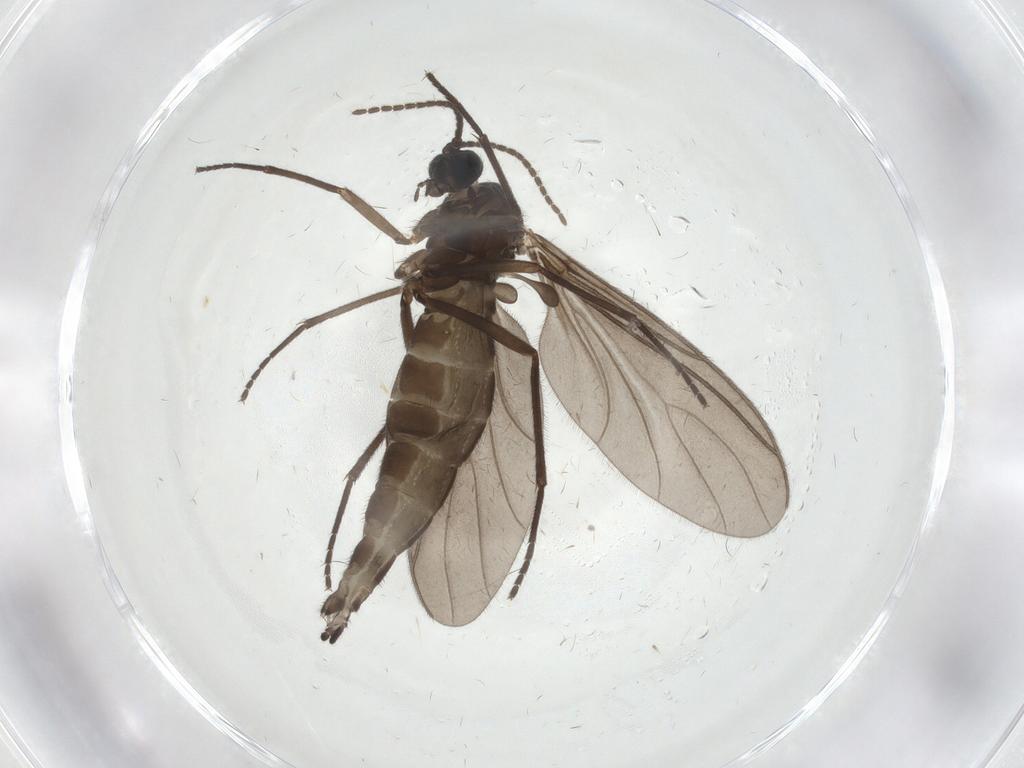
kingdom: Animalia
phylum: Arthropoda
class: Insecta
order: Diptera
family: Sciaridae
